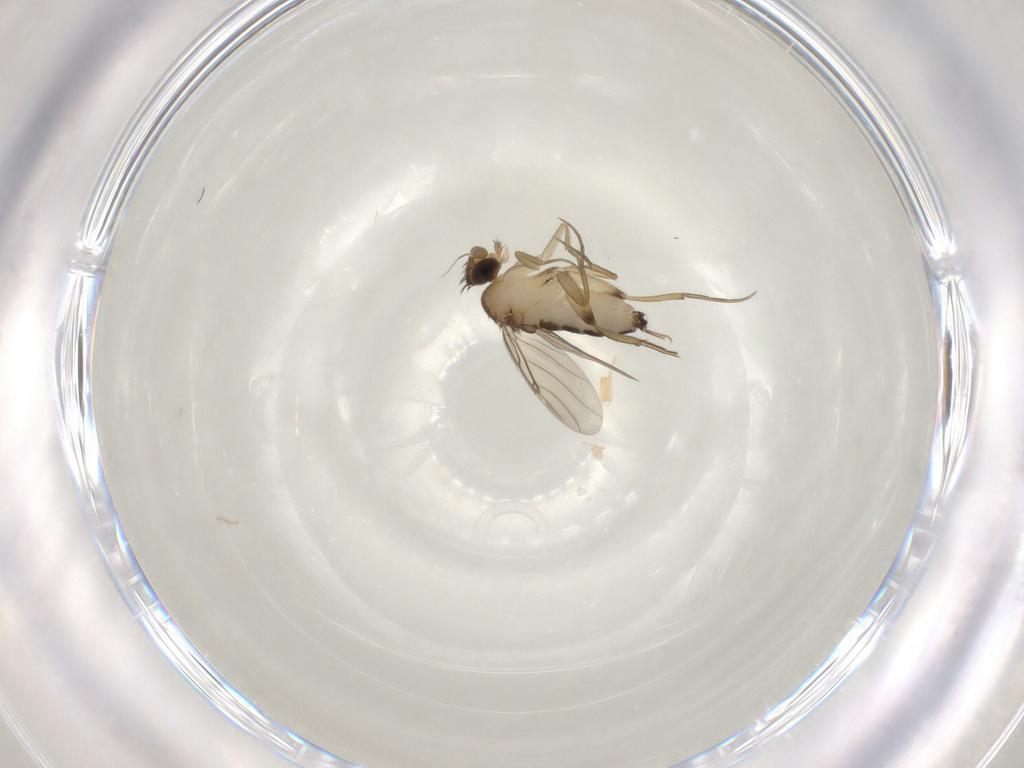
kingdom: Animalia
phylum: Arthropoda
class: Insecta
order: Diptera
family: Phoridae
